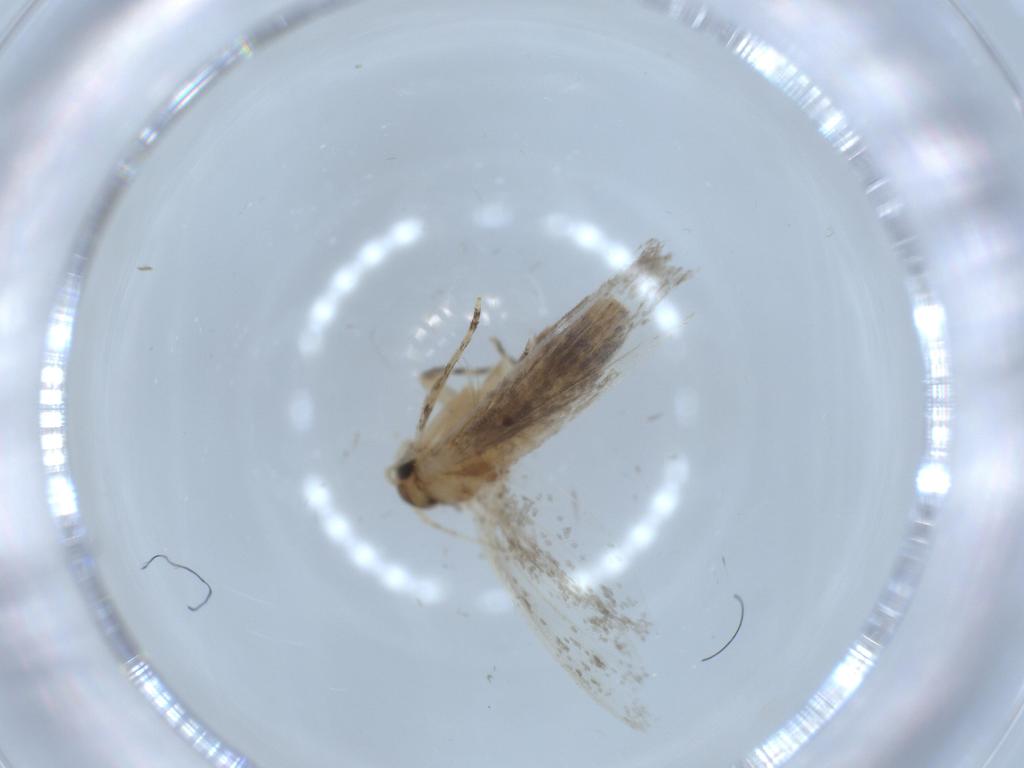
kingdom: Animalia
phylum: Arthropoda
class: Insecta
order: Lepidoptera
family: Tineidae
